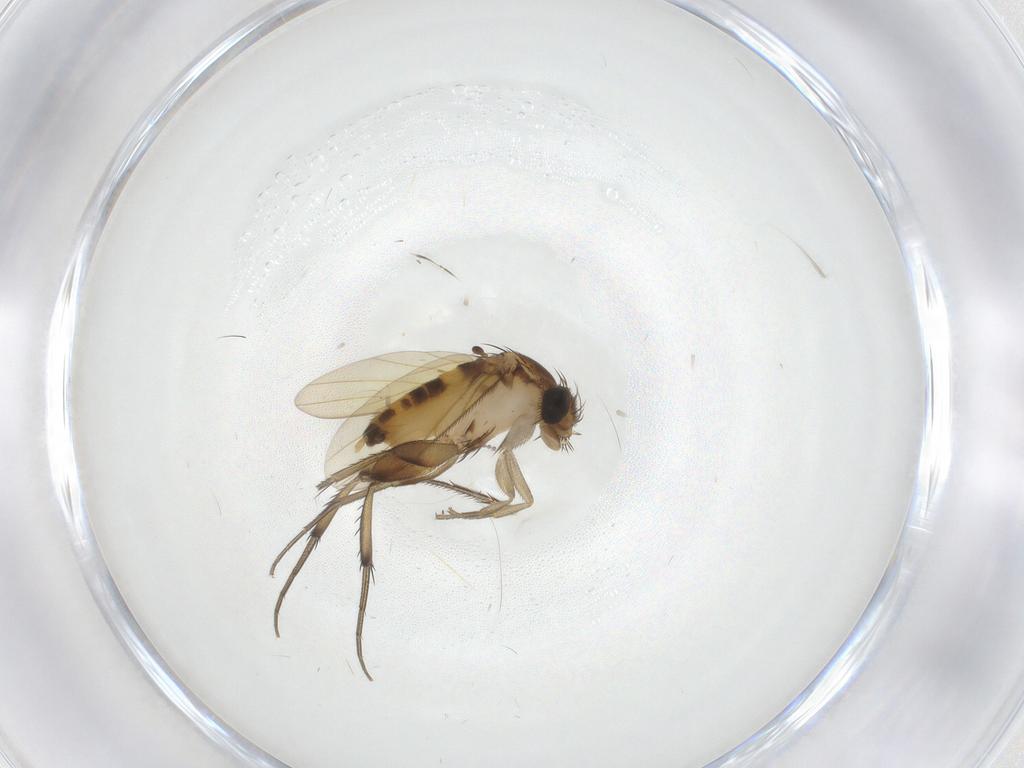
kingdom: Animalia
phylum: Arthropoda
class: Insecta
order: Diptera
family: Phoridae
